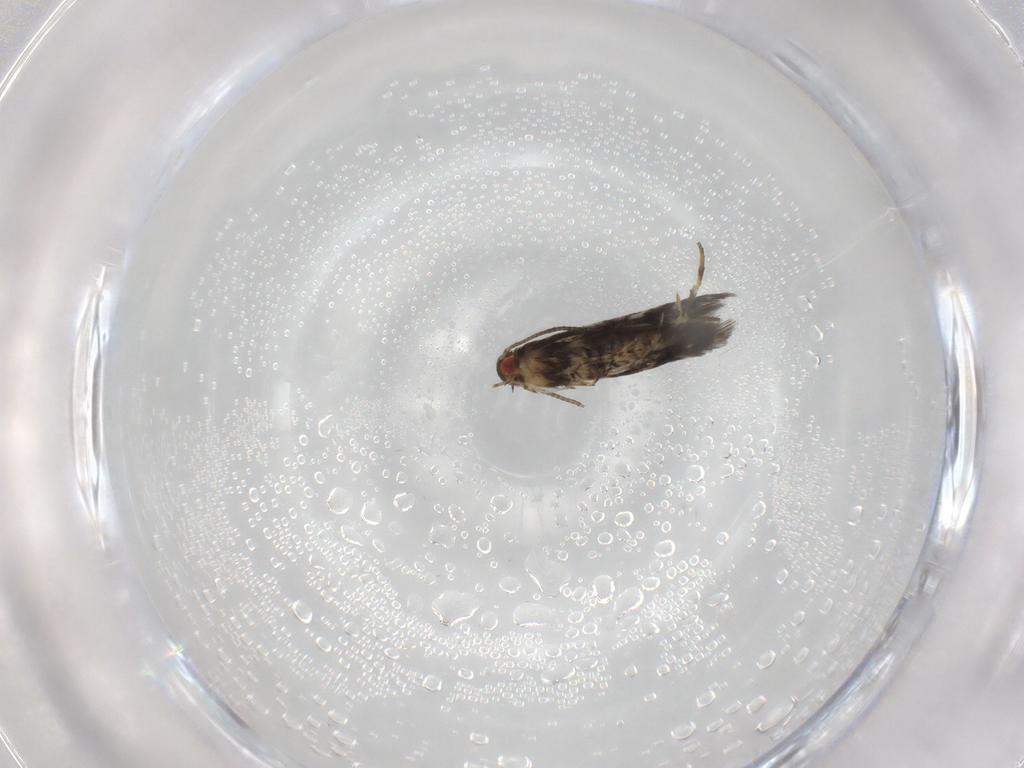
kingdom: Animalia
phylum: Arthropoda
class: Insecta
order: Lepidoptera
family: Gracillariidae
